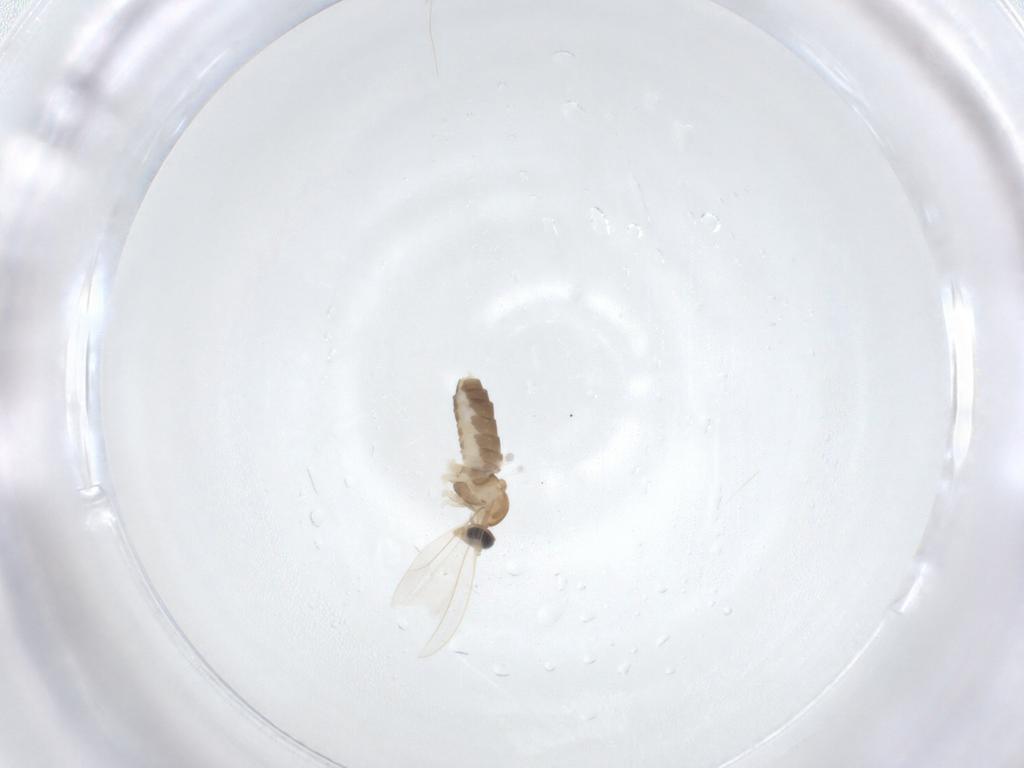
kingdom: Animalia
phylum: Arthropoda
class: Insecta
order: Diptera
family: Cecidomyiidae
